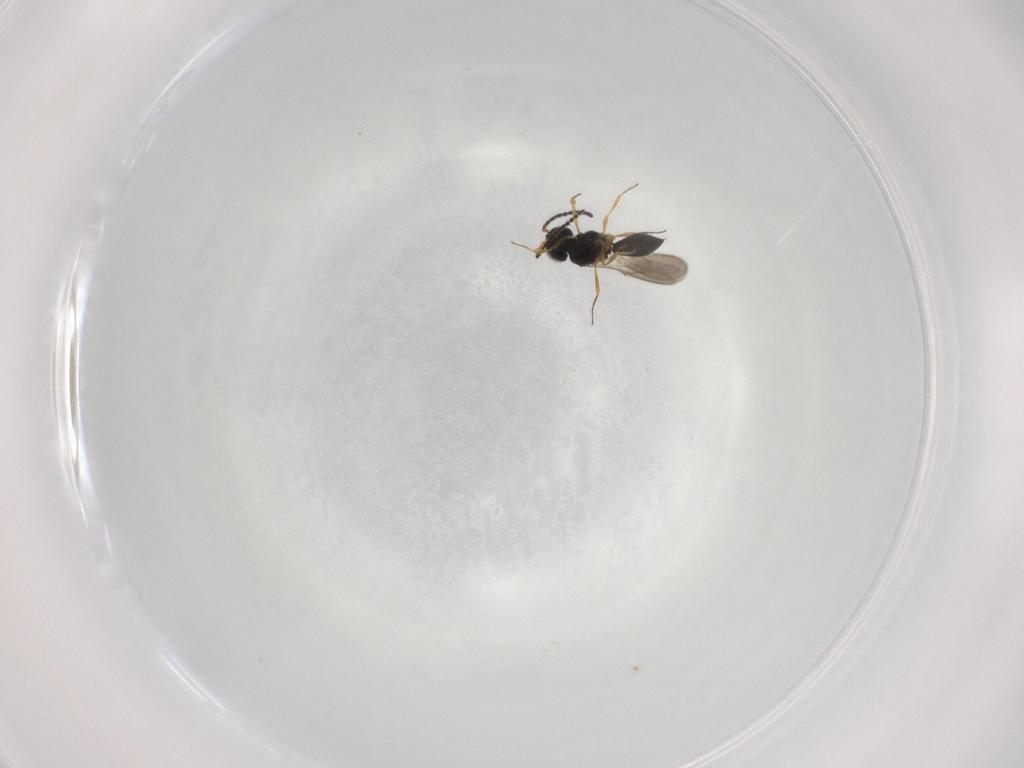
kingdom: Animalia
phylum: Arthropoda
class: Insecta
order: Hymenoptera
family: Scelionidae
